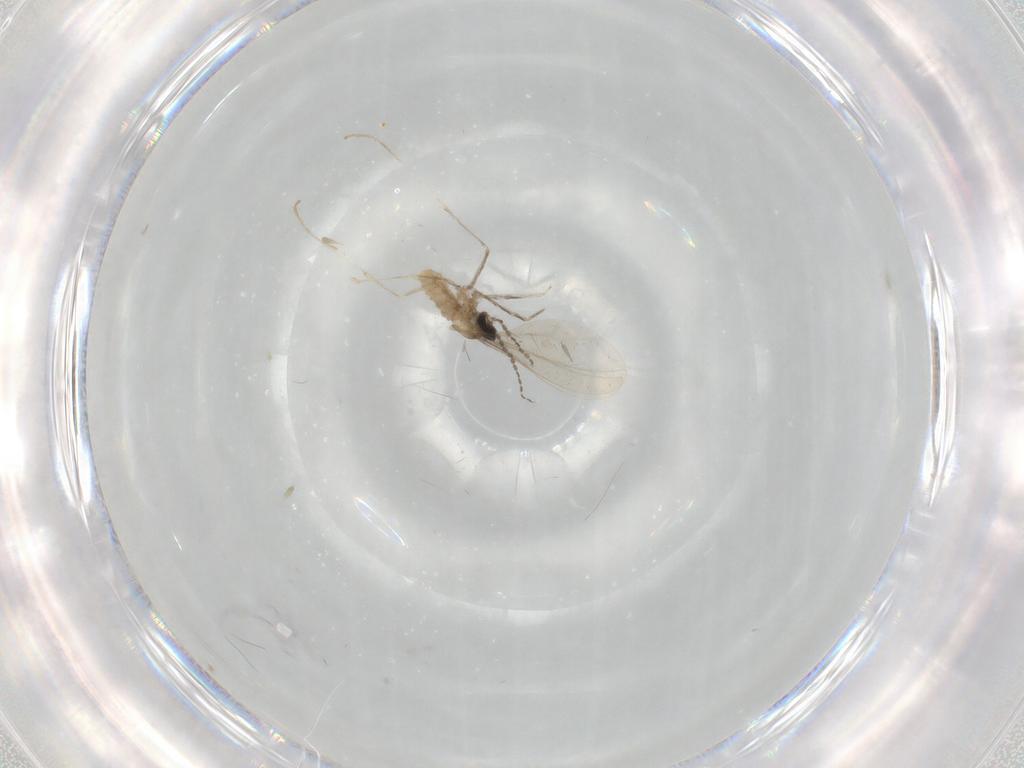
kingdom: Animalia
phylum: Arthropoda
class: Insecta
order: Diptera
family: Cecidomyiidae
